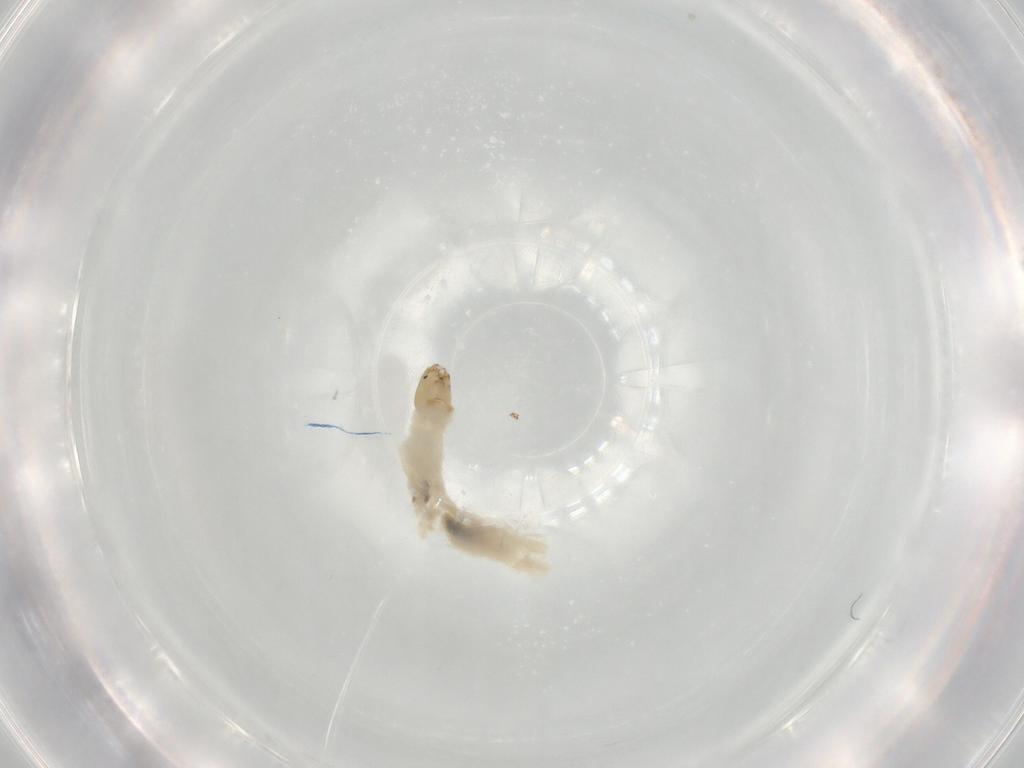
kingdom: Animalia
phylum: Arthropoda
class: Insecta
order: Diptera
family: Chironomidae
